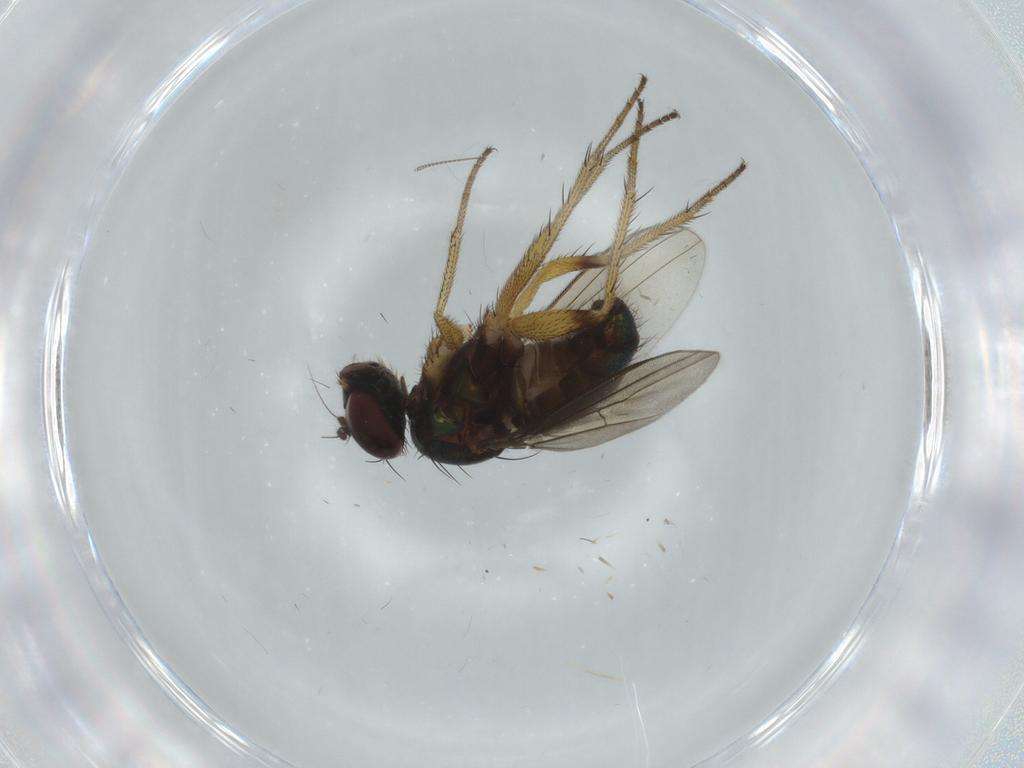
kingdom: Animalia
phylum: Arthropoda
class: Insecta
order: Diptera
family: Dolichopodidae
